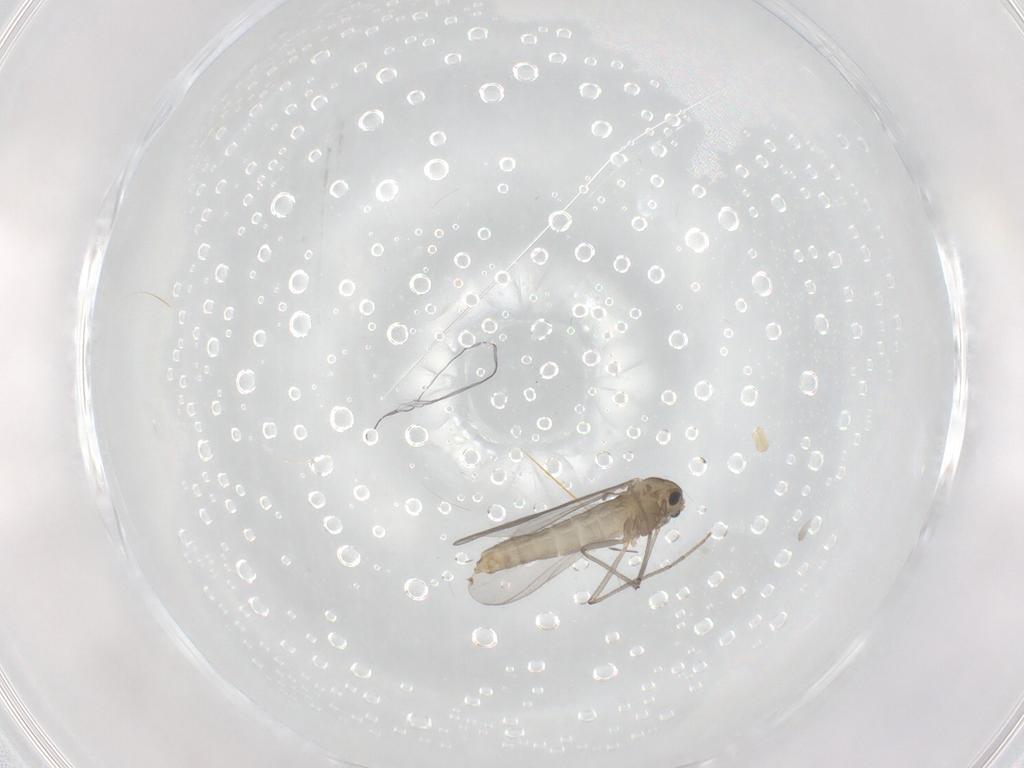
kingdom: Animalia
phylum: Arthropoda
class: Insecta
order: Diptera
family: Chironomidae
